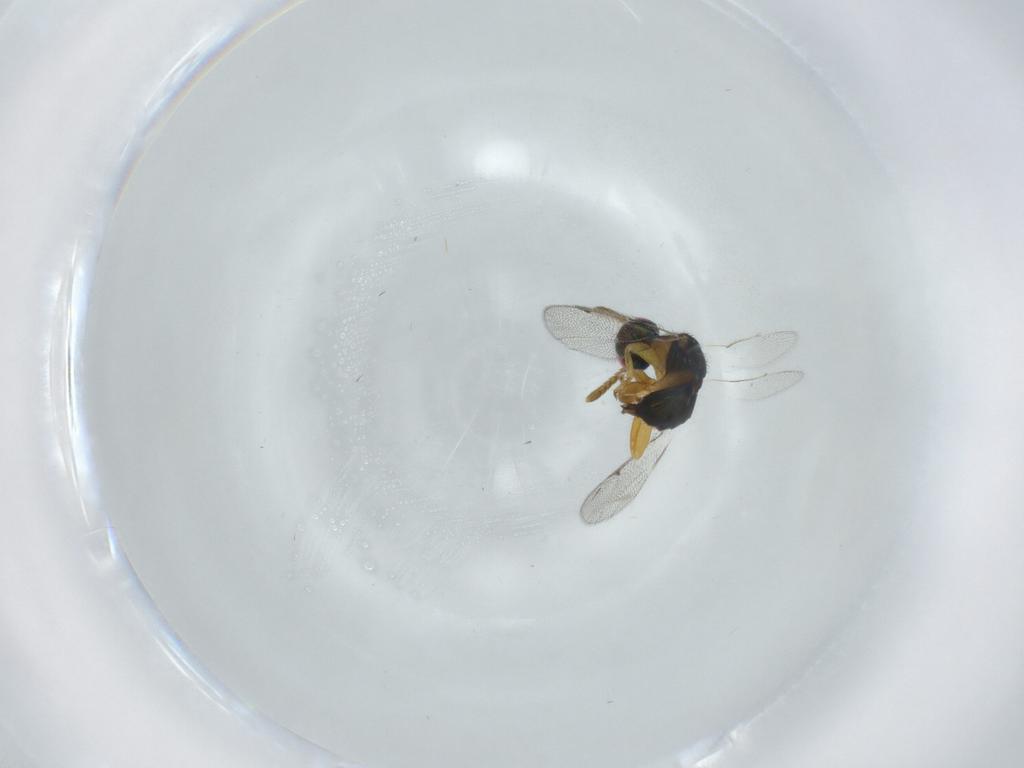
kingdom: Animalia
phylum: Arthropoda
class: Insecta
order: Hymenoptera
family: Torymidae
